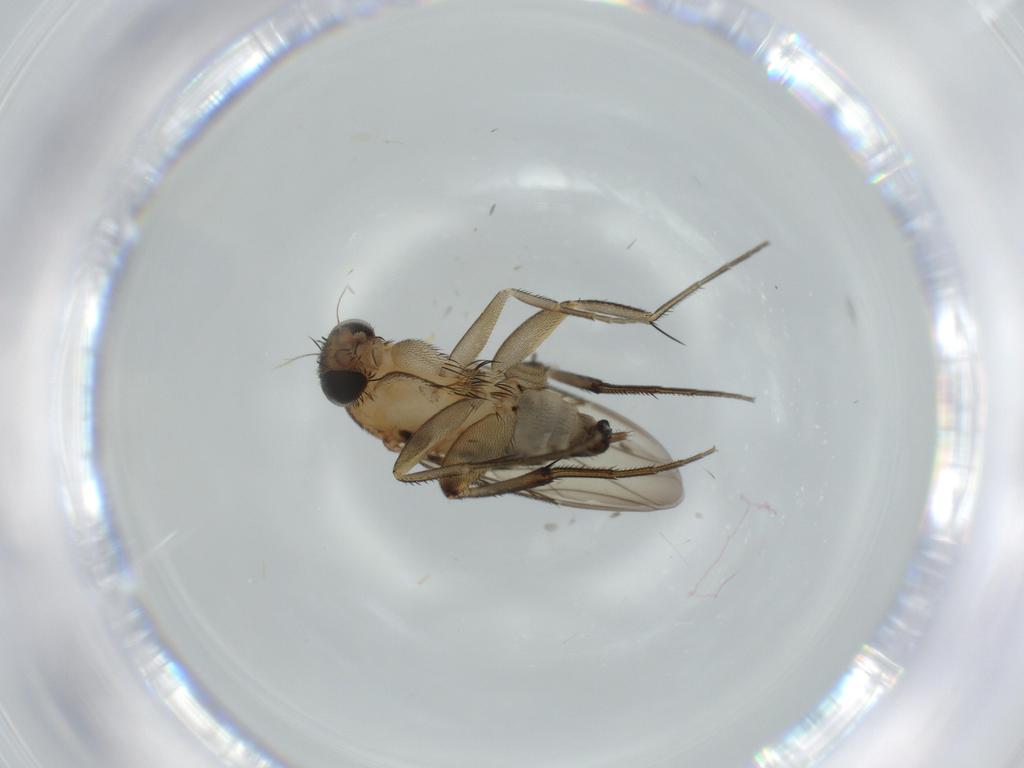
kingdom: Animalia
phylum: Arthropoda
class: Insecta
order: Diptera
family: Phoridae
